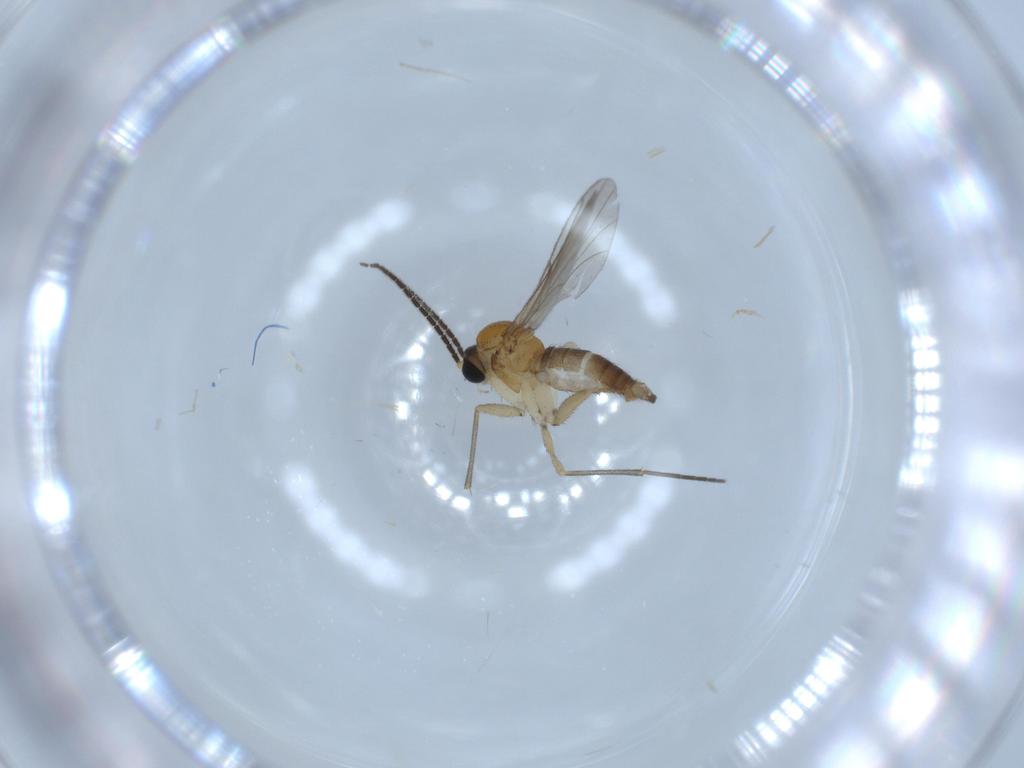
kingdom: Animalia
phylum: Arthropoda
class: Insecta
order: Diptera
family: Sciaridae
